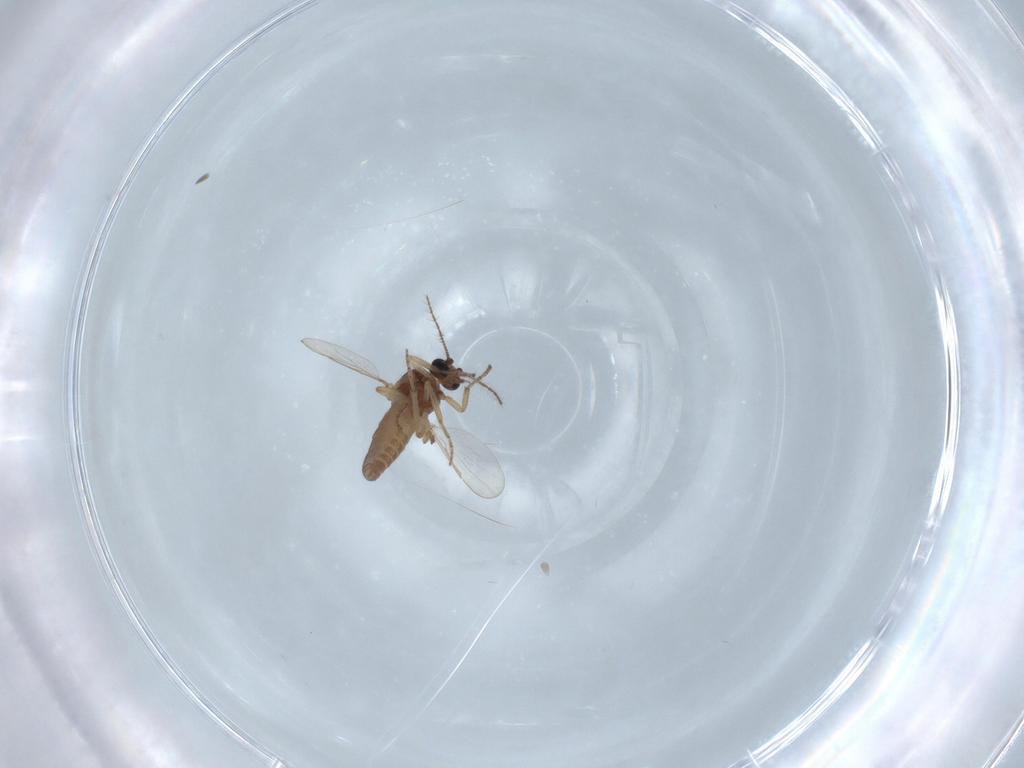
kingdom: Animalia
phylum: Arthropoda
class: Insecta
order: Diptera
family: Ceratopogonidae
